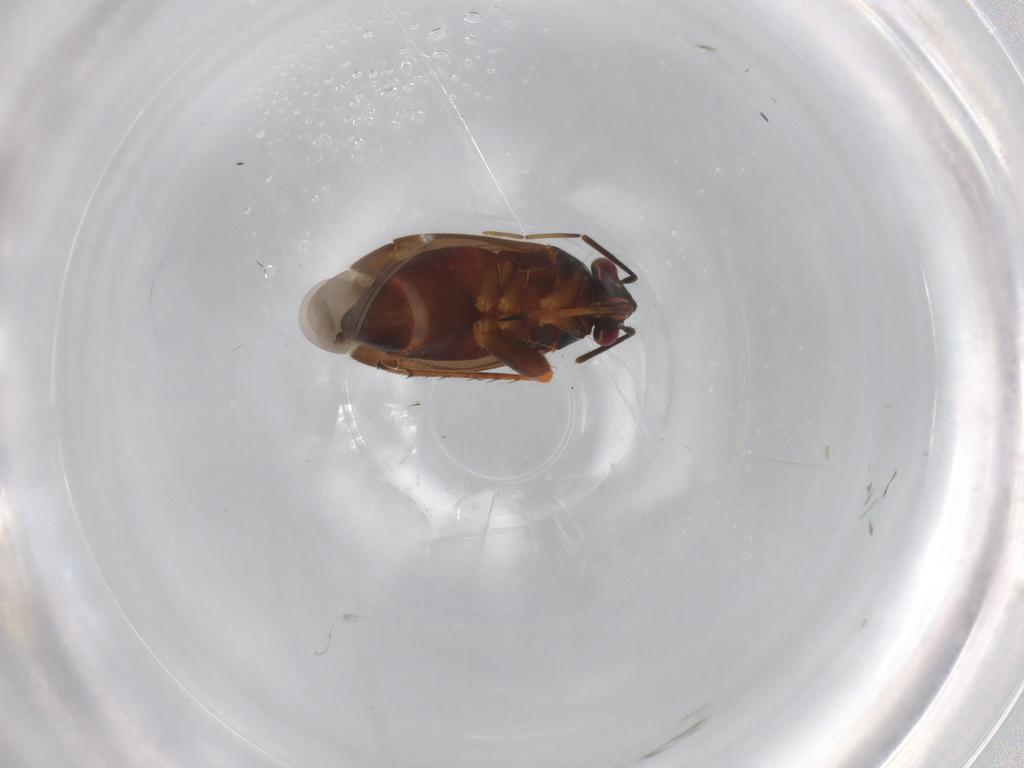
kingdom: Animalia
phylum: Arthropoda
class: Insecta
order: Hemiptera
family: Miridae
